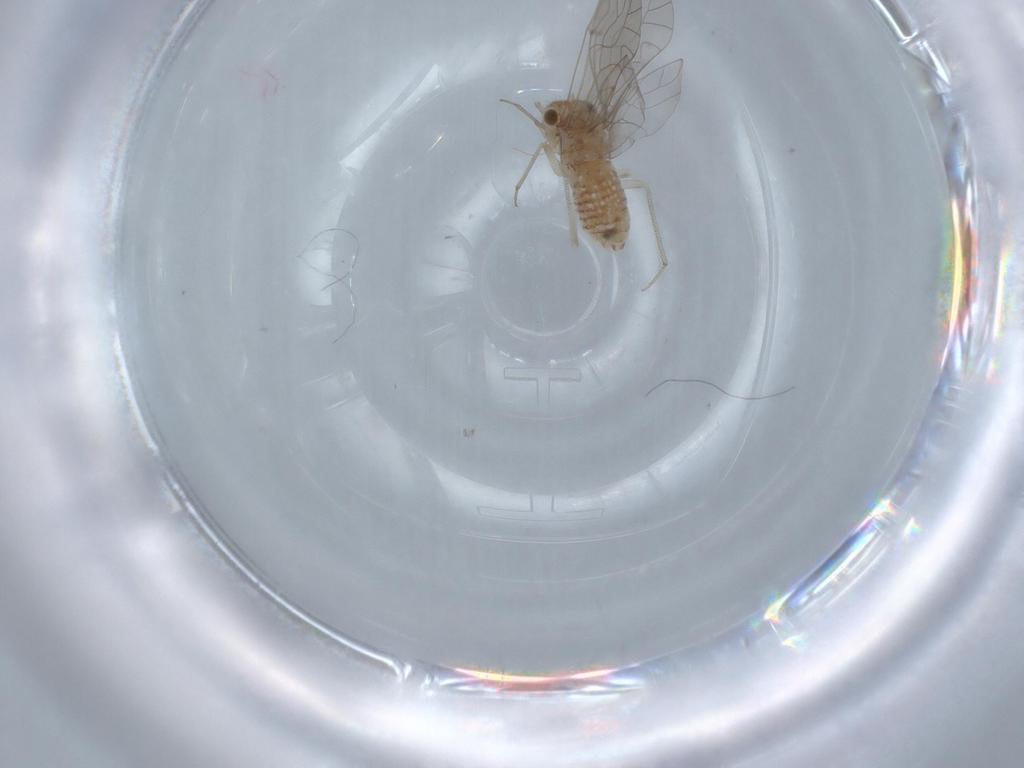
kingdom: Animalia
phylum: Arthropoda
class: Insecta
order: Psocodea
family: Lachesillidae
